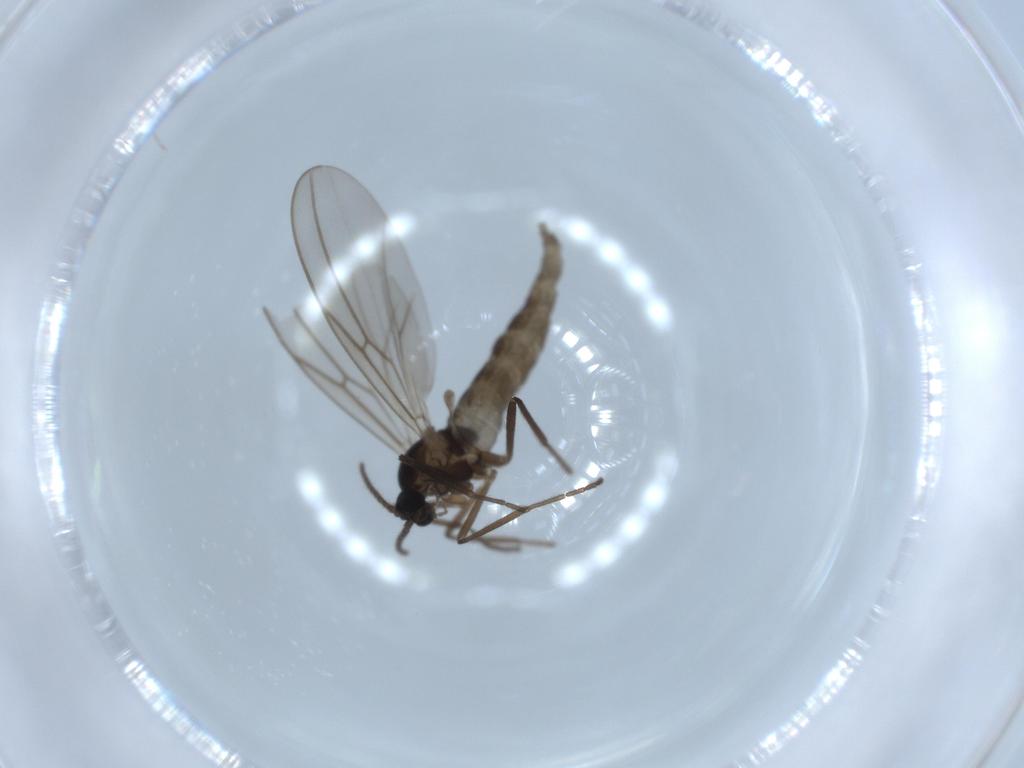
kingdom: Animalia
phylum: Arthropoda
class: Insecta
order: Diptera
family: Cecidomyiidae
